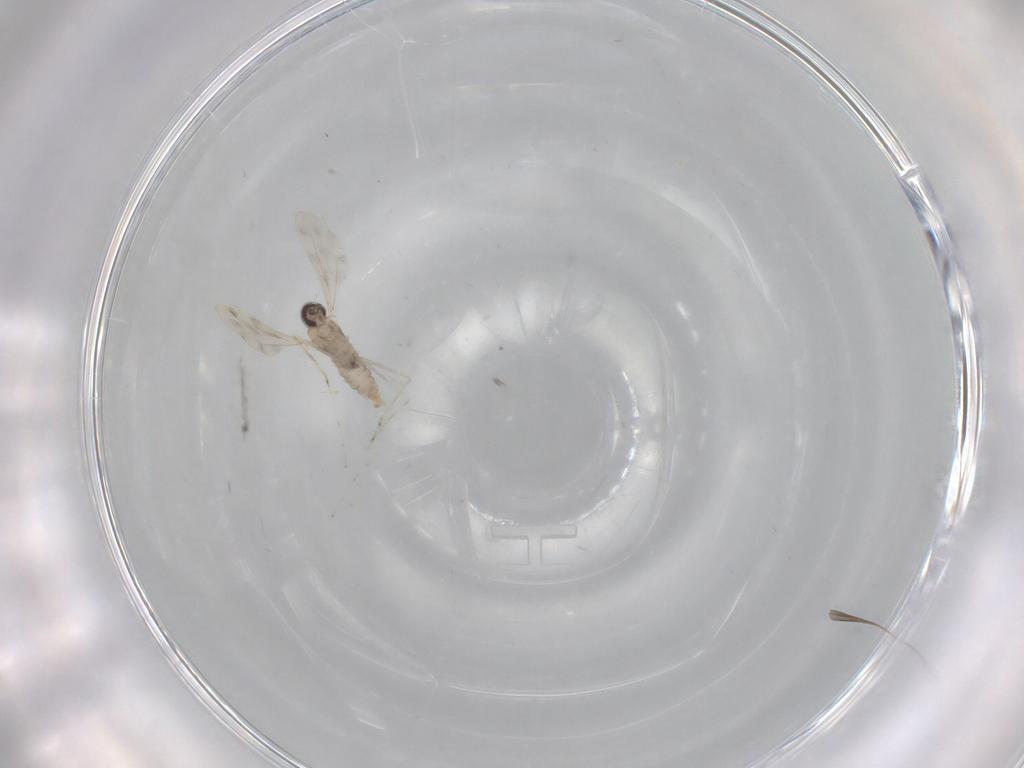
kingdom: Animalia
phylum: Arthropoda
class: Insecta
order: Diptera
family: Cecidomyiidae
